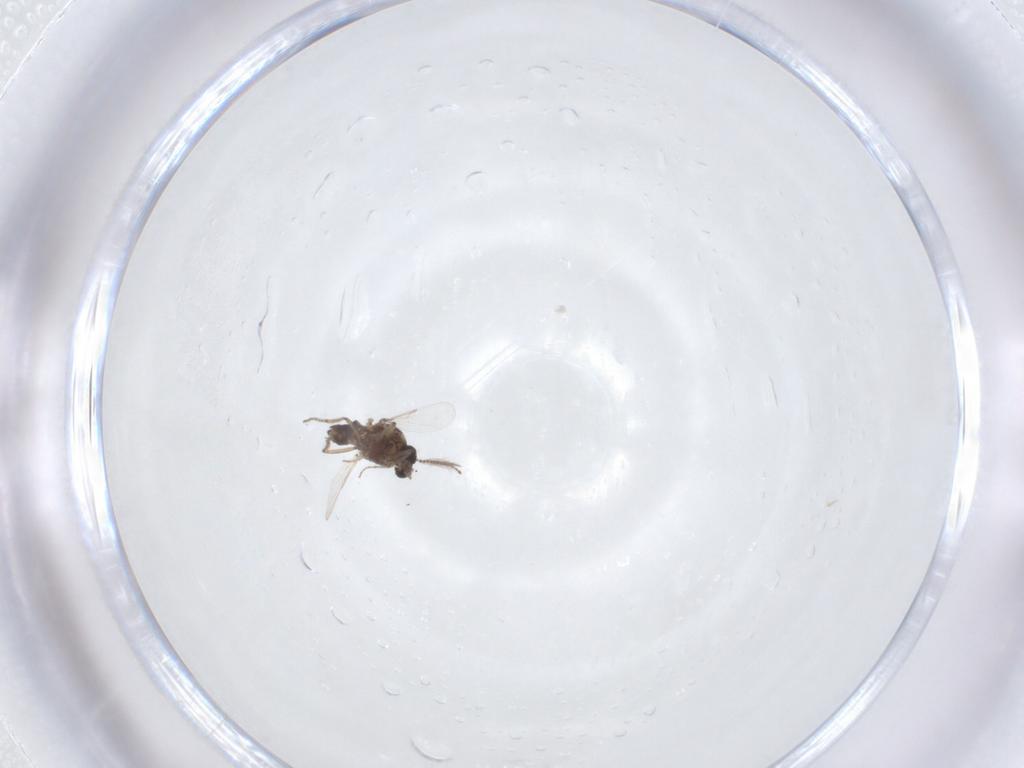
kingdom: Animalia
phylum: Arthropoda
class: Insecta
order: Diptera
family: Ceratopogonidae
